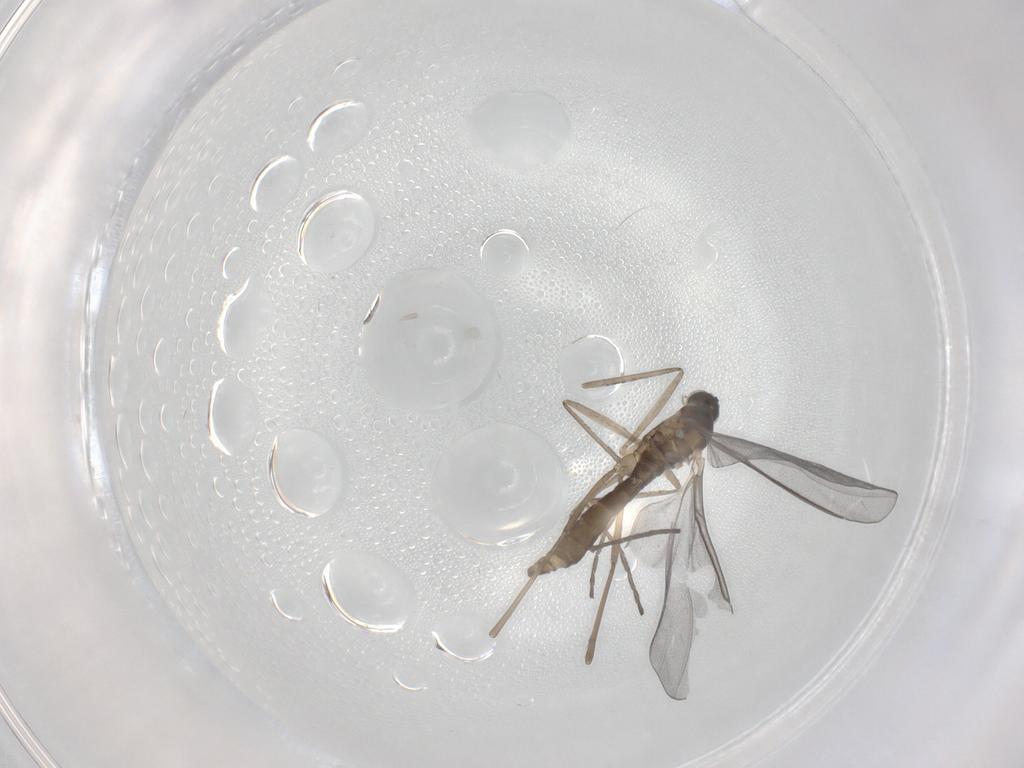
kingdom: Animalia
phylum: Arthropoda
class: Insecta
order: Diptera
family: Cecidomyiidae
